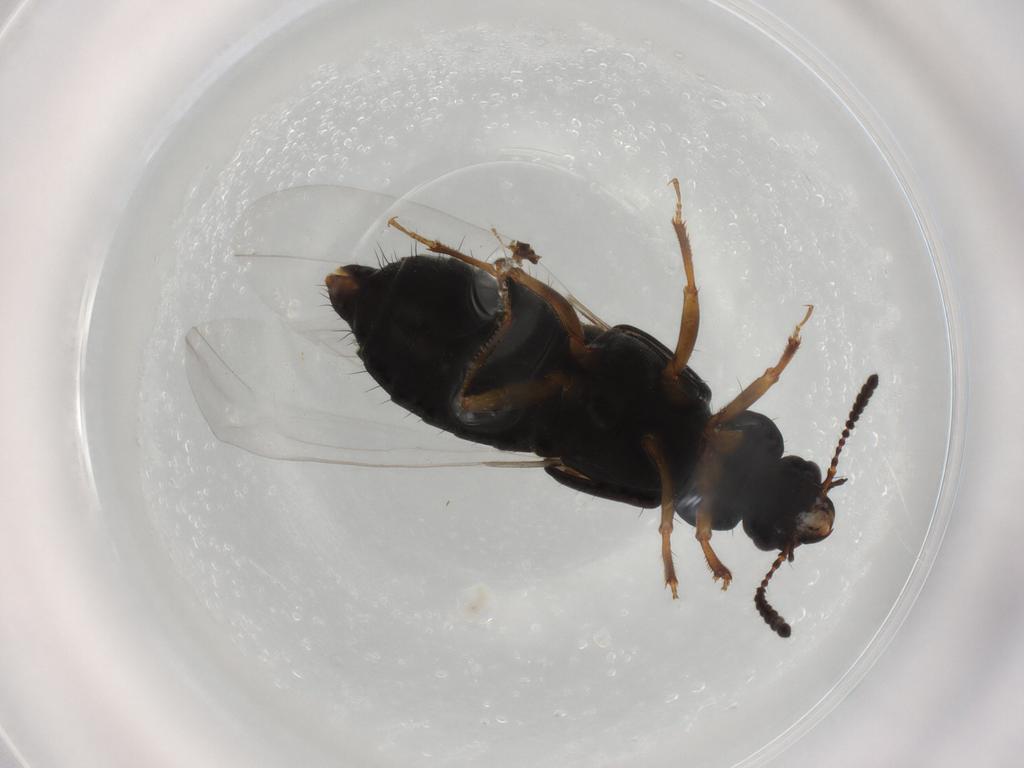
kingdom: Animalia
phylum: Arthropoda
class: Insecta
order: Coleoptera
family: Staphylinidae
